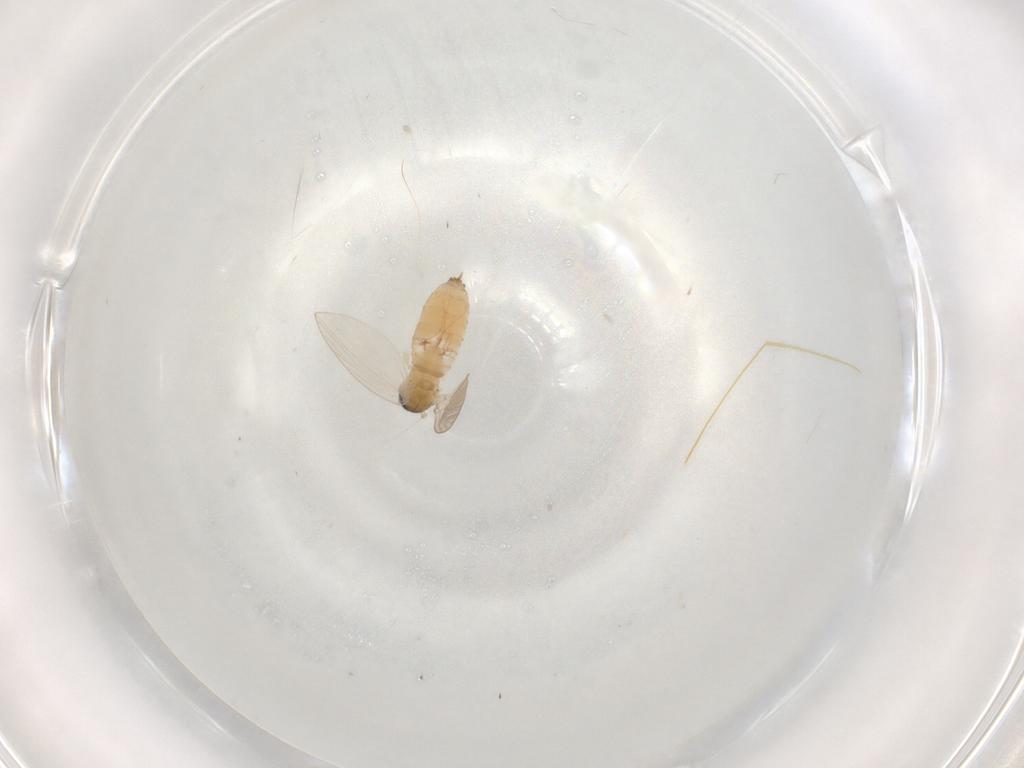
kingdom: Animalia
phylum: Arthropoda
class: Insecta
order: Diptera
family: Psychodidae
